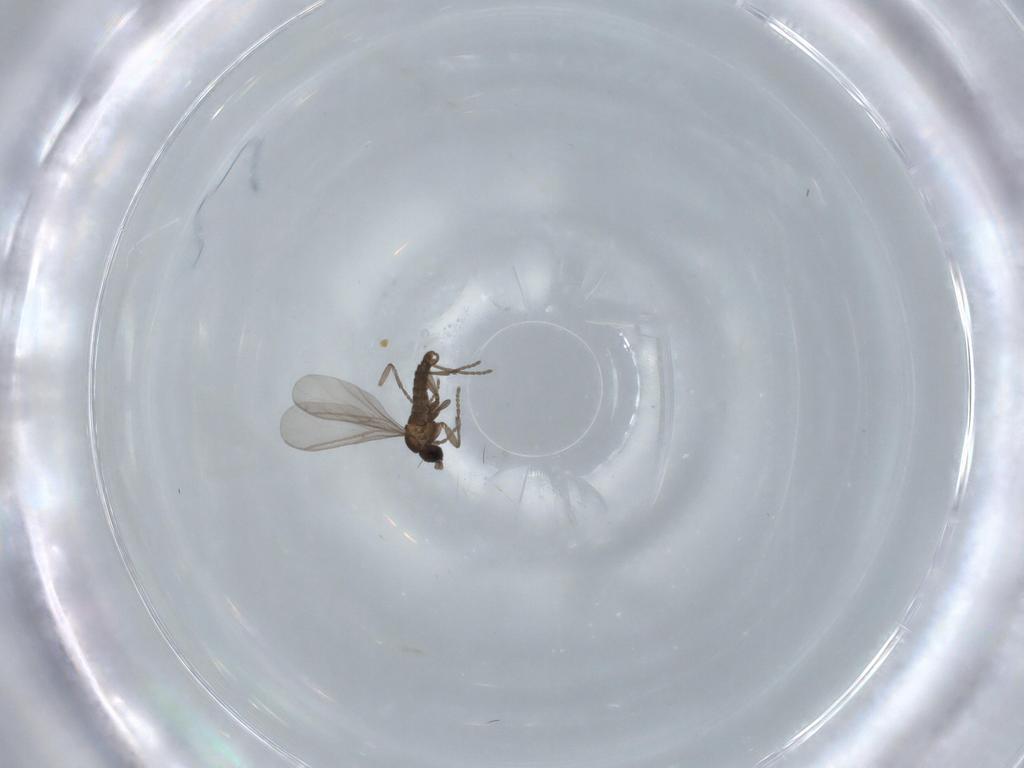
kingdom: Animalia
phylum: Arthropoda
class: Insecta
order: Diptera
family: Cecidomyiidae
